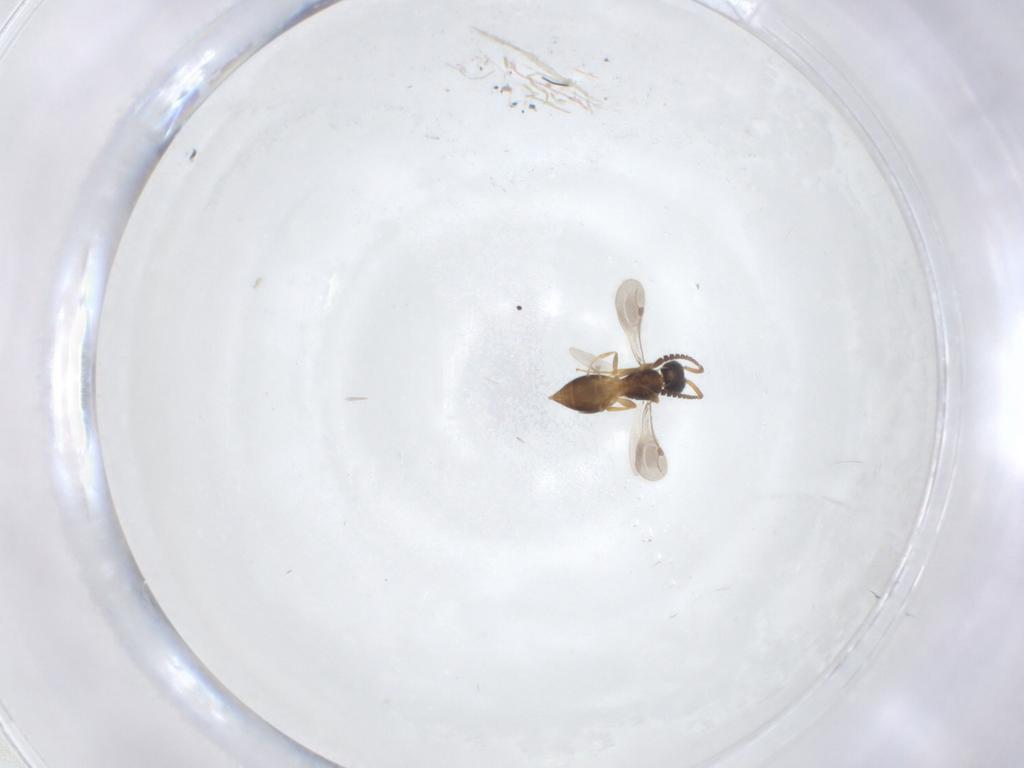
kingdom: Animalia
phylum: Arthropoda
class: Insecta
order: Hymenoptera
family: Megaspilidae
